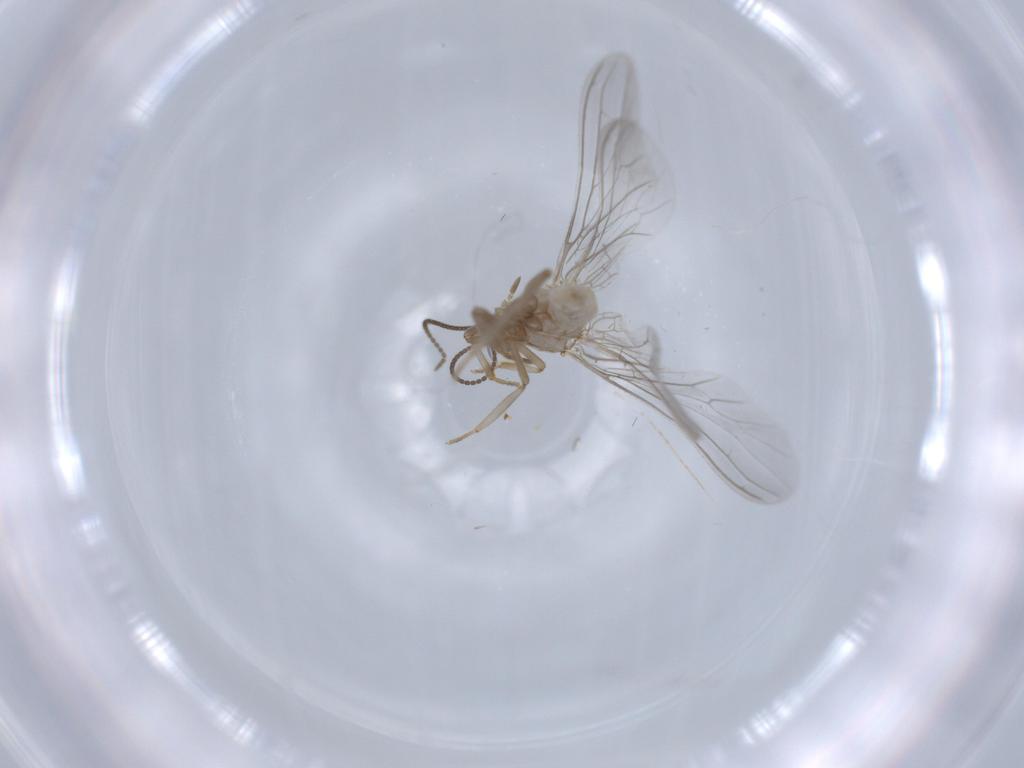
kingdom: Animalia
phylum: Arthropoda
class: Insecta
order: Neuroptera
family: Coniopterygidae
